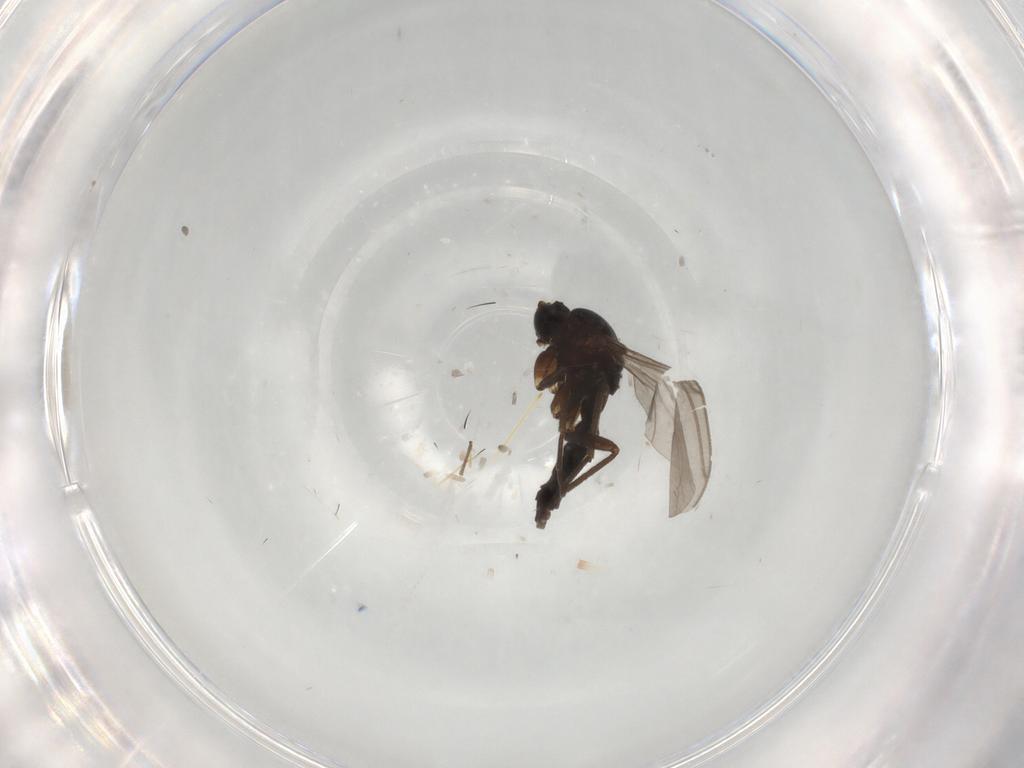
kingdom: Animalia
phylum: Arthropoda
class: Insecta
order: Diptera
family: Sciaridae
